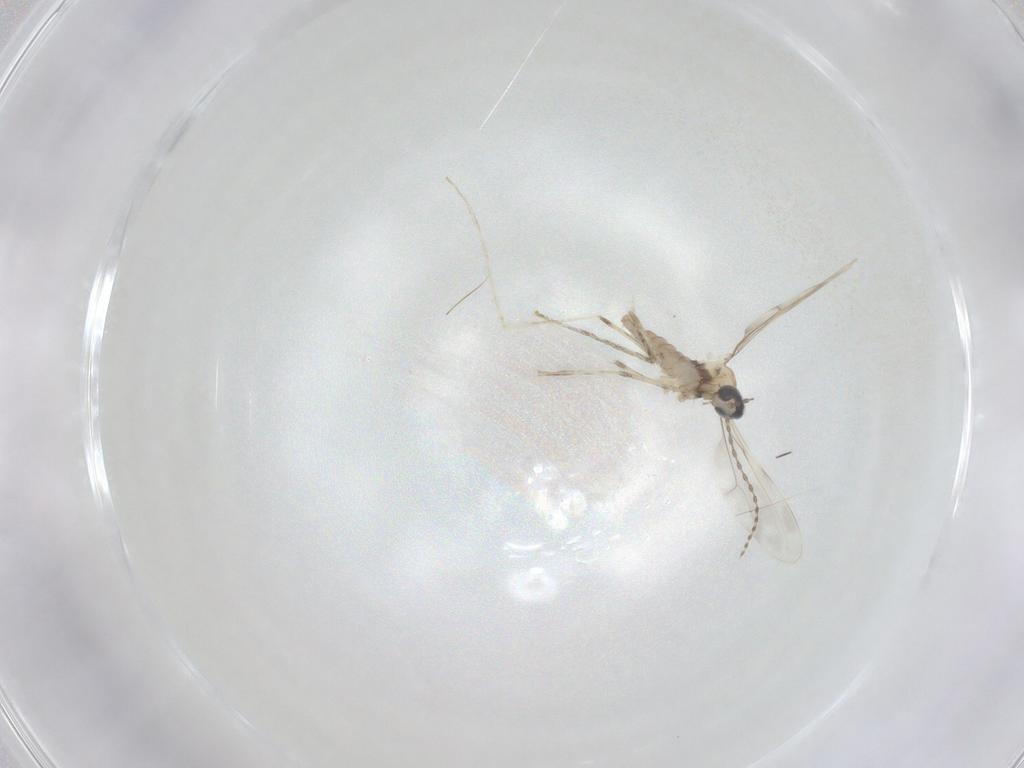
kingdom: Animalia
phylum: Arthropoda
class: Insecta
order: Diptera
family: Cecidomyiidae
